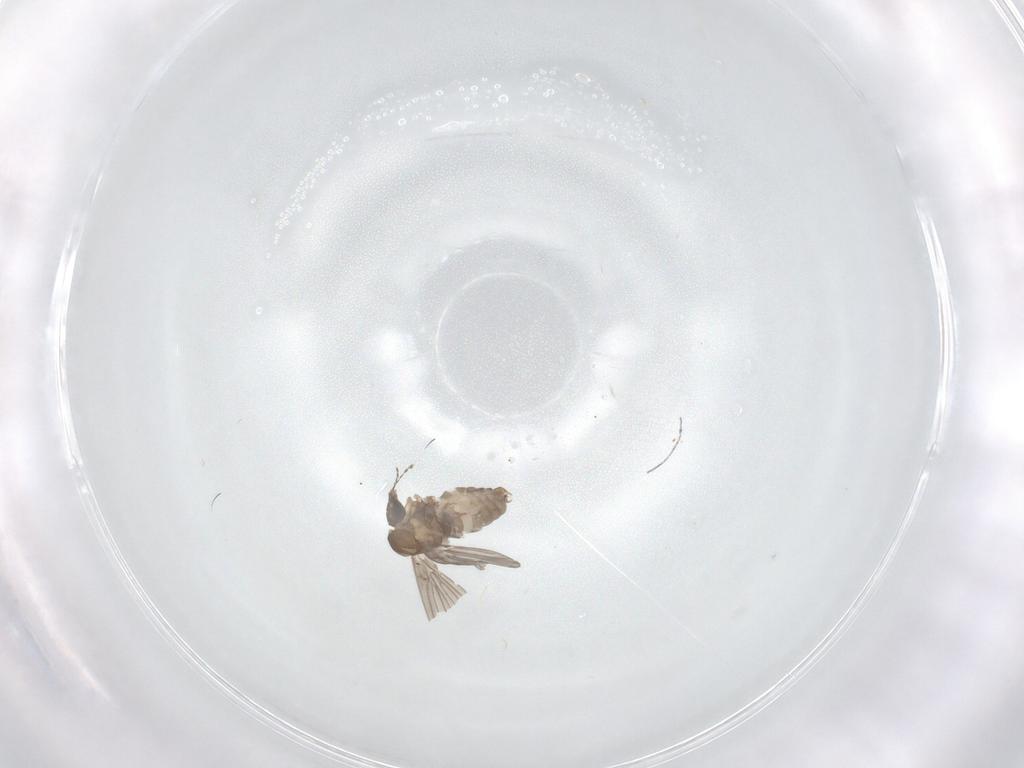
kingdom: Animalia
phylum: Arthropoda
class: Insecta
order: Diptera
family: Psychodidae
